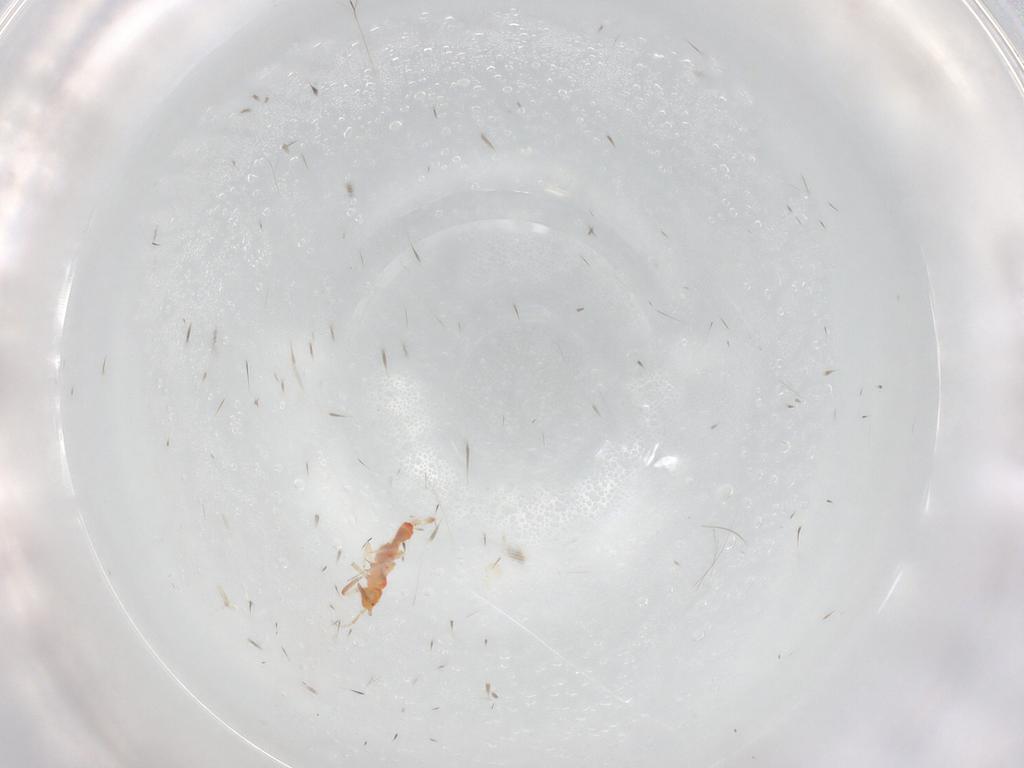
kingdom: Animalia
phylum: Arthropoda
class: Insecta
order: Thysanoptera
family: Aeolothripidae
